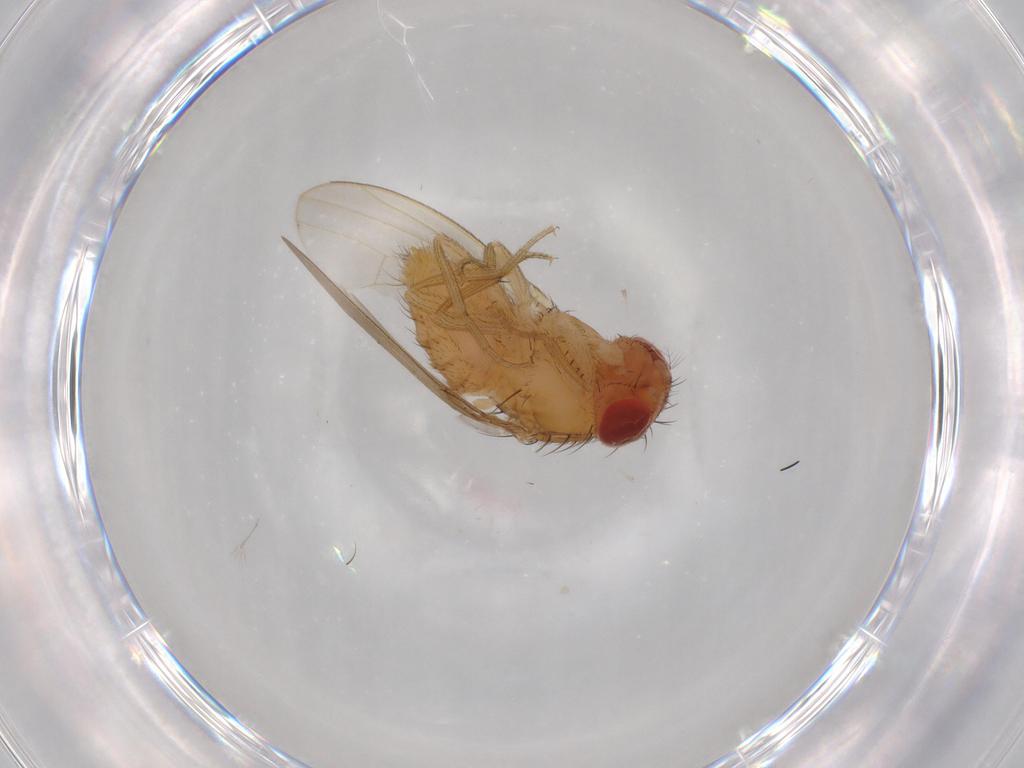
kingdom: Animalia
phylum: Arthropoda
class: Insecta
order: Diptera
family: Drosophilidae
